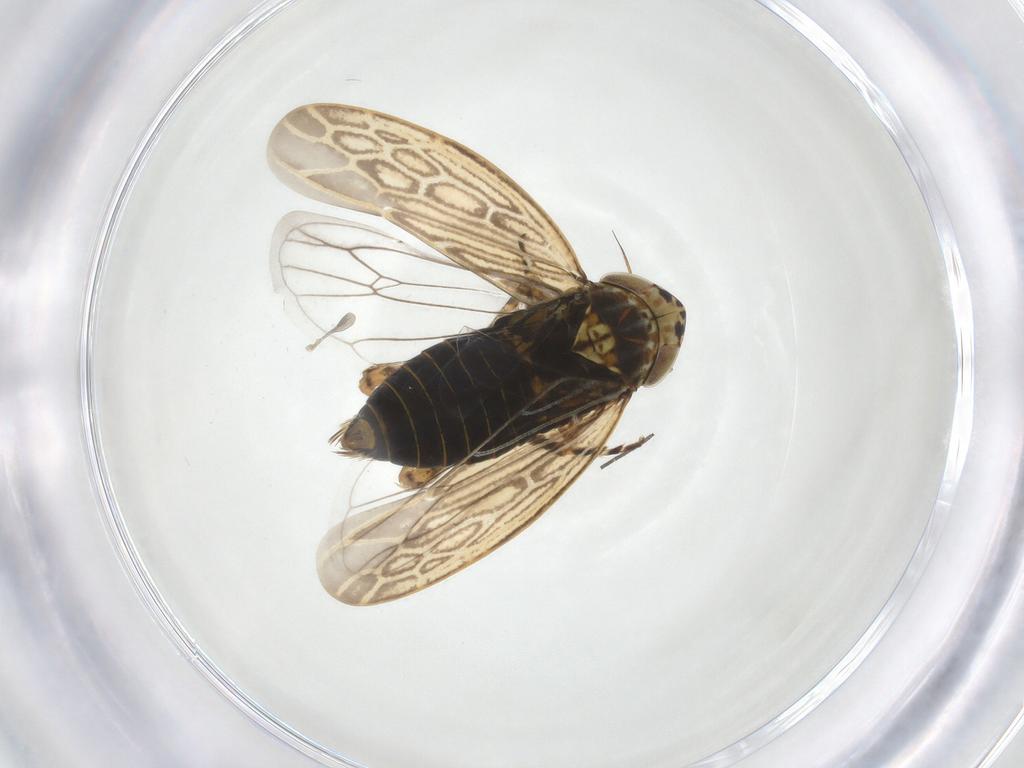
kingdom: Animalia
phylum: Arthropoda
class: Insecta
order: Hemiptera
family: Cicadellidae
